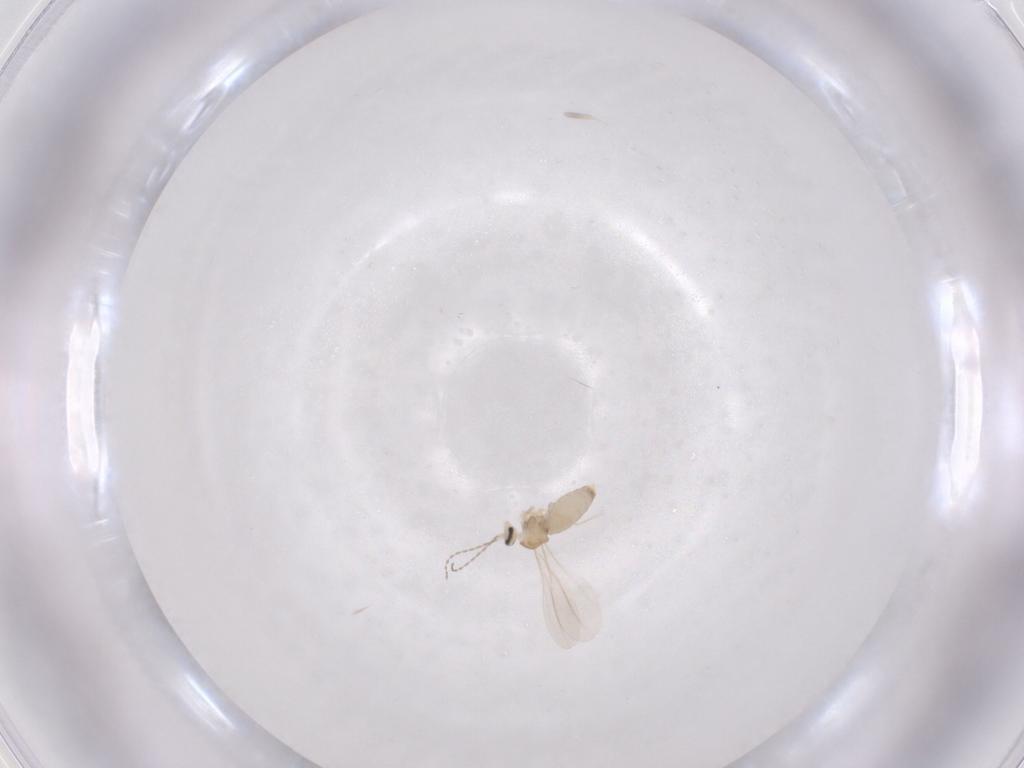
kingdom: Animalia
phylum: Arthropoda
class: Insecta
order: Diptera
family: Cecidomyiidae
